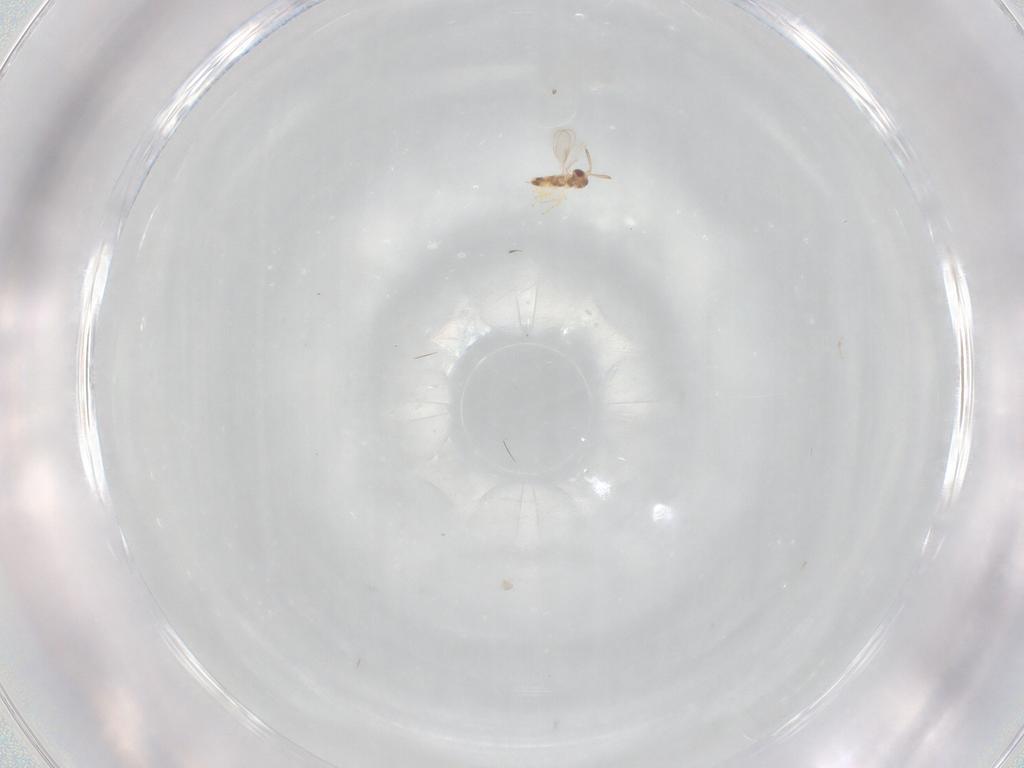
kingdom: Animalia
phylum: Arthropoda
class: Insecta
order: Hymenoptera
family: Aphelinidae
